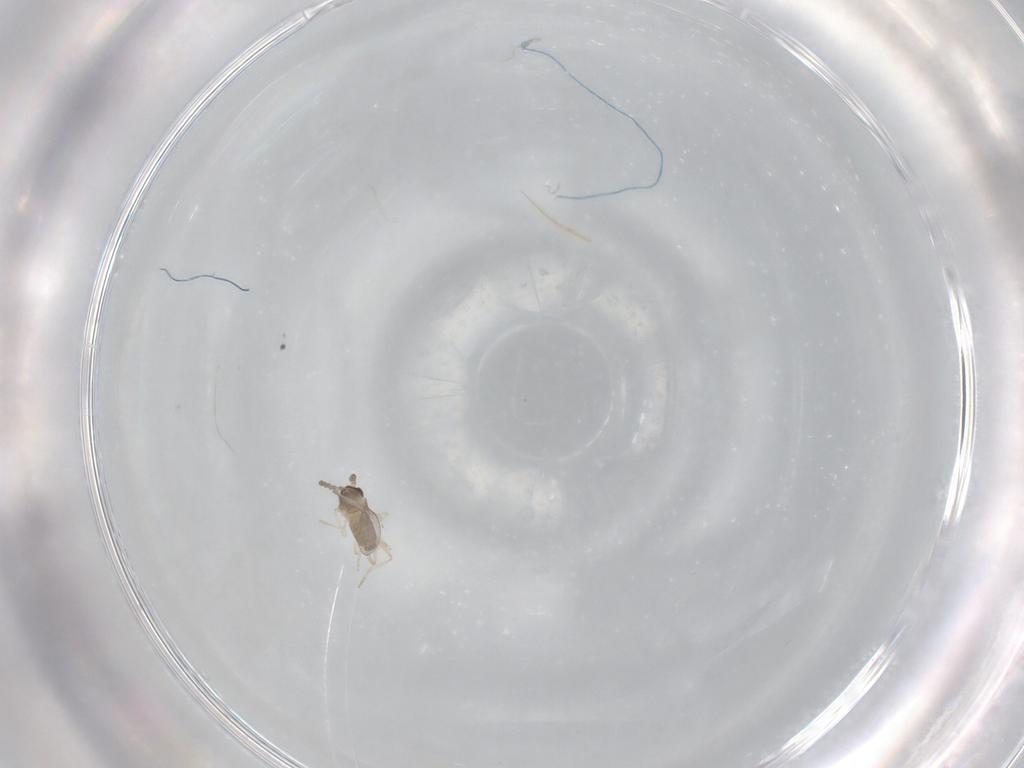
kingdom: Animalia
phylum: Arthropoda
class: Insecta
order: Diptera
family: Cecidomyiidae
